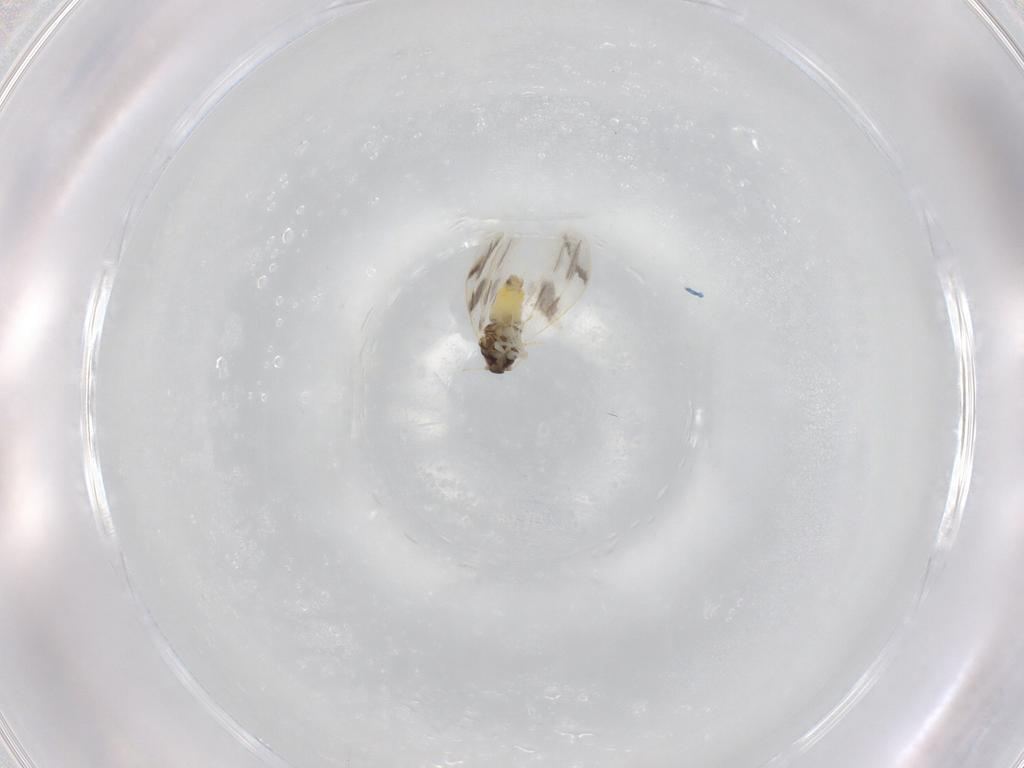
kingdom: Animalia
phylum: Arthropoda
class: Insecta
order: Hemiptera
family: Aleyrodidae
